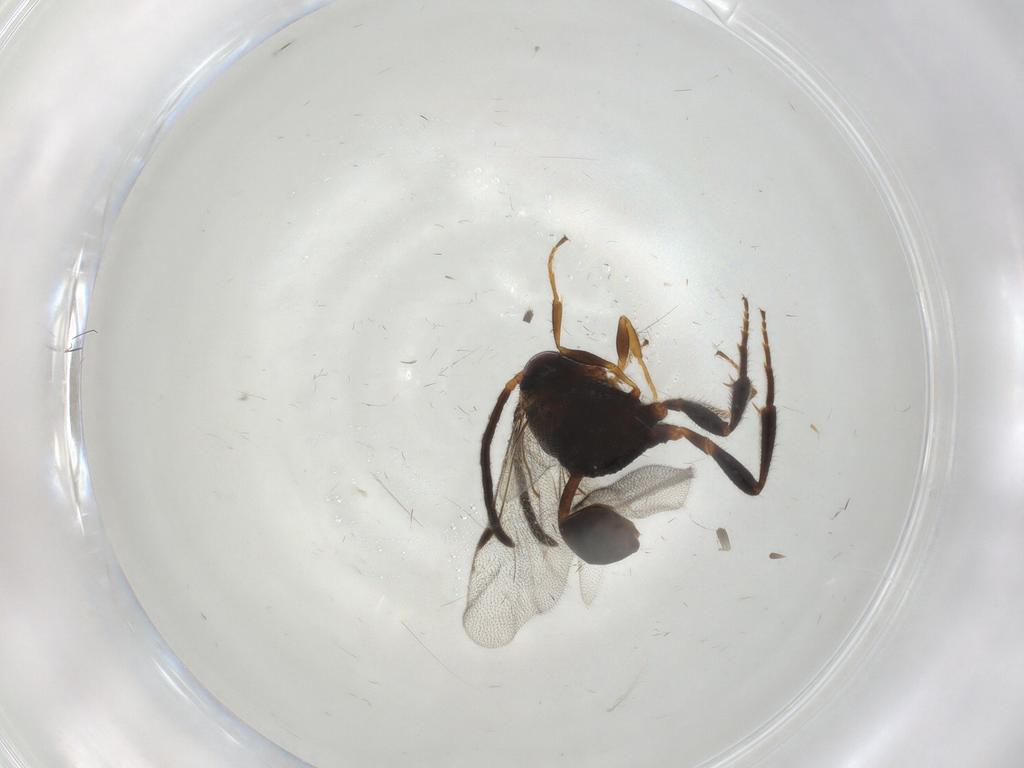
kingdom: Animalia
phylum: Arthropoda
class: Insecta
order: Hymenoptera
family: Evaniidae
